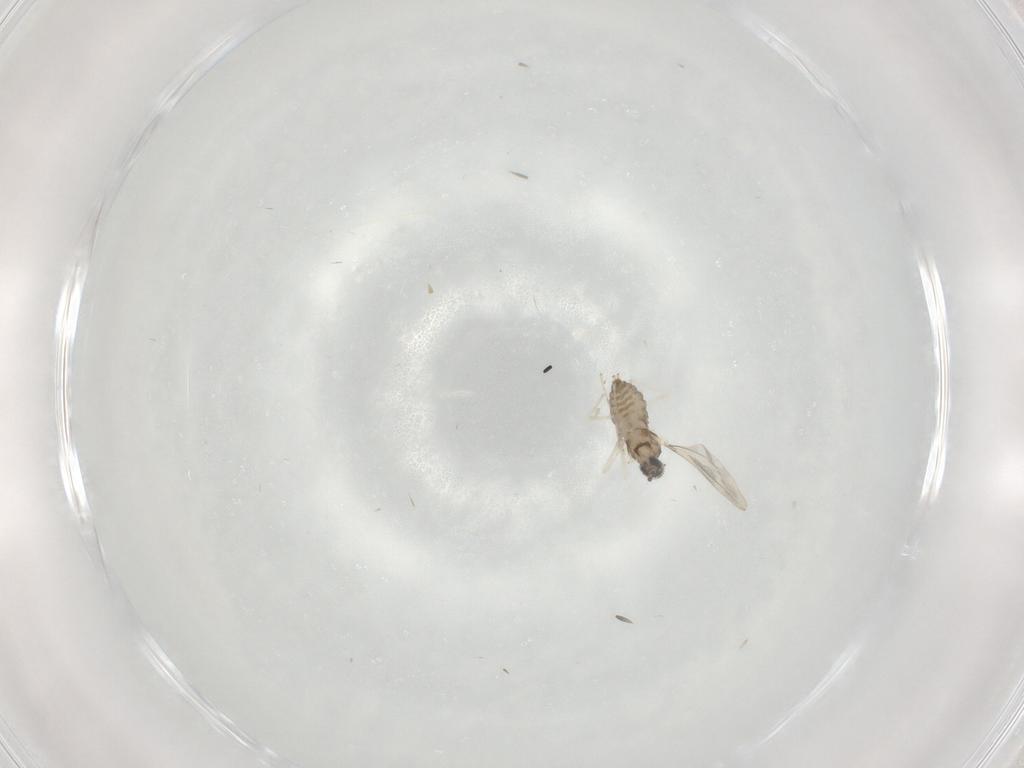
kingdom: Animalia
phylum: Arthropoda
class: Insecta
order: Diptera
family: Cecidomyiidae
